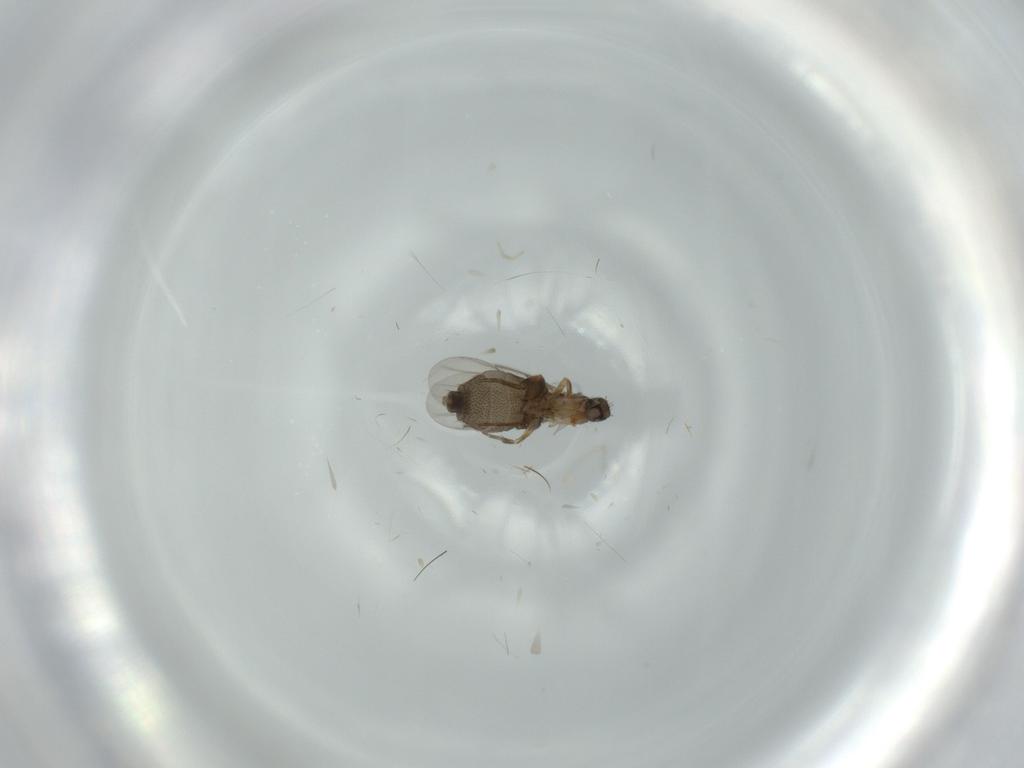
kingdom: Animalia
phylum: Arthropoda
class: Insecta
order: Diptera
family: Phoridae
